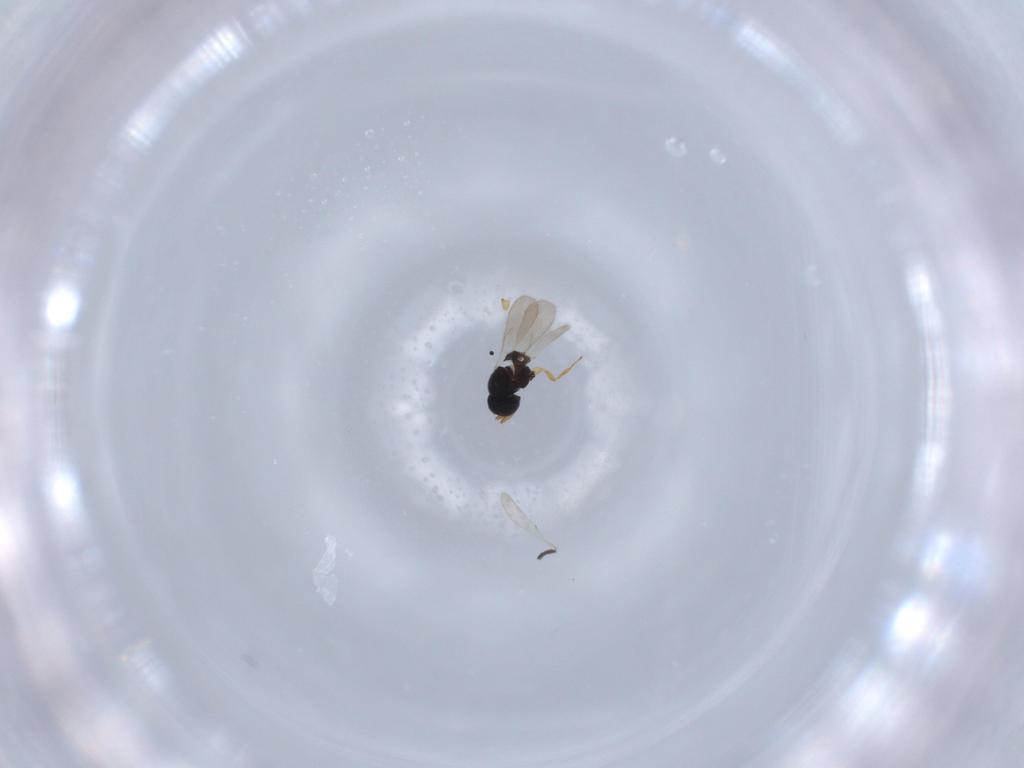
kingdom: Animalia
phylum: Arthropoda
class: Insecta
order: Hymenoptera
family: Scelionidae
